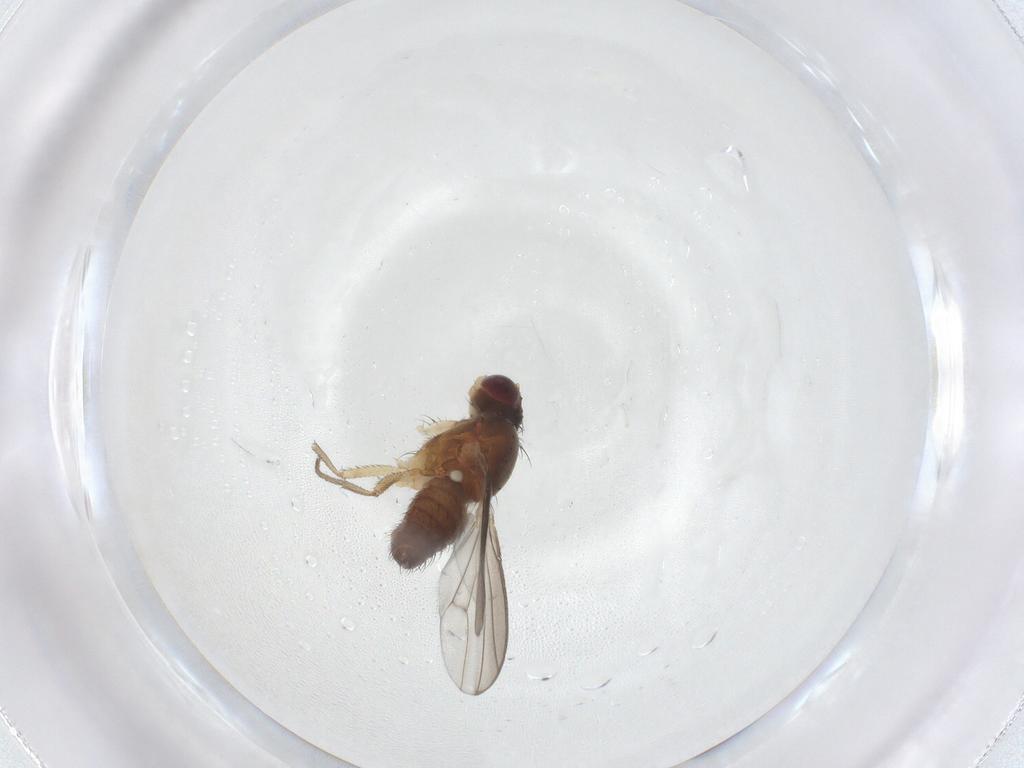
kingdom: Animalia
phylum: Arthropoda
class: Insecta
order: Diptera
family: Heleomyzidae
